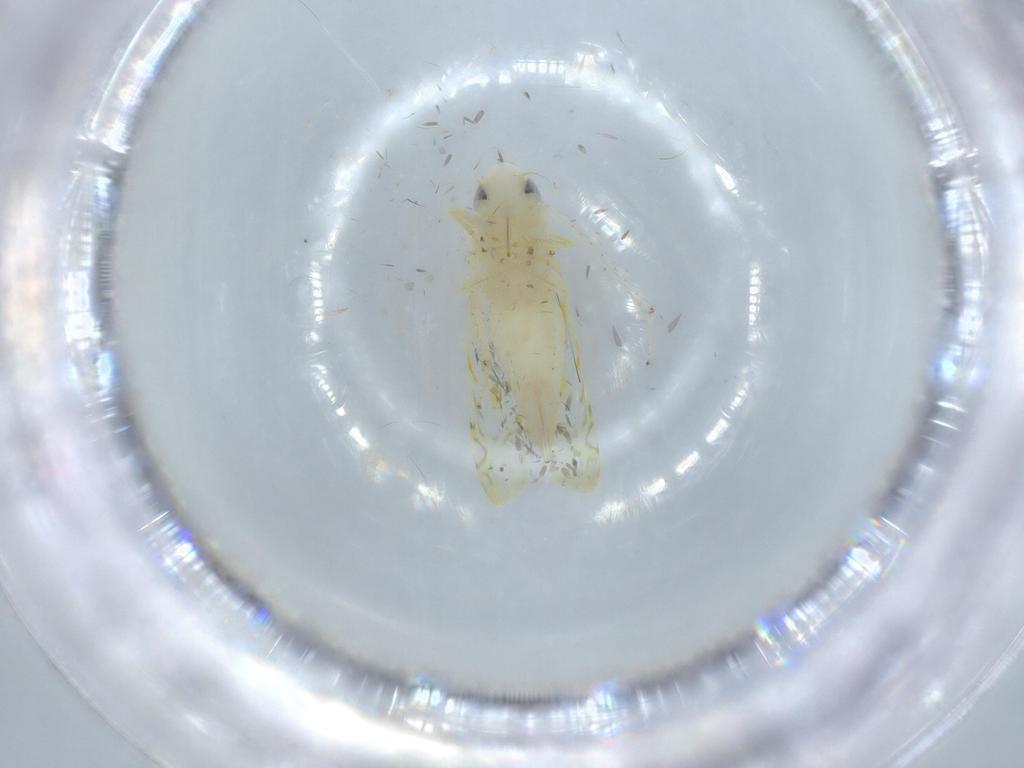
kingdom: Animalia
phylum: Arthropoda
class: Insecta
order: Hemiptera
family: Cicadellidae
